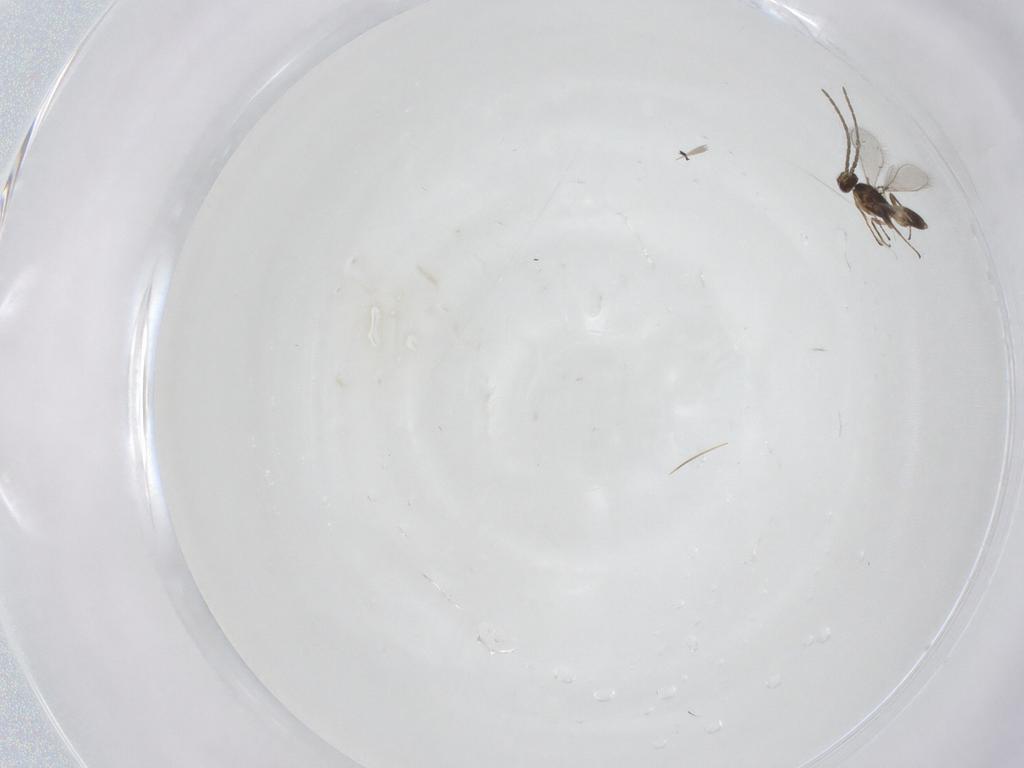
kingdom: Animalia
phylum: Arthropoda
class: Insecta
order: Hymenoptera
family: Mymaridae
